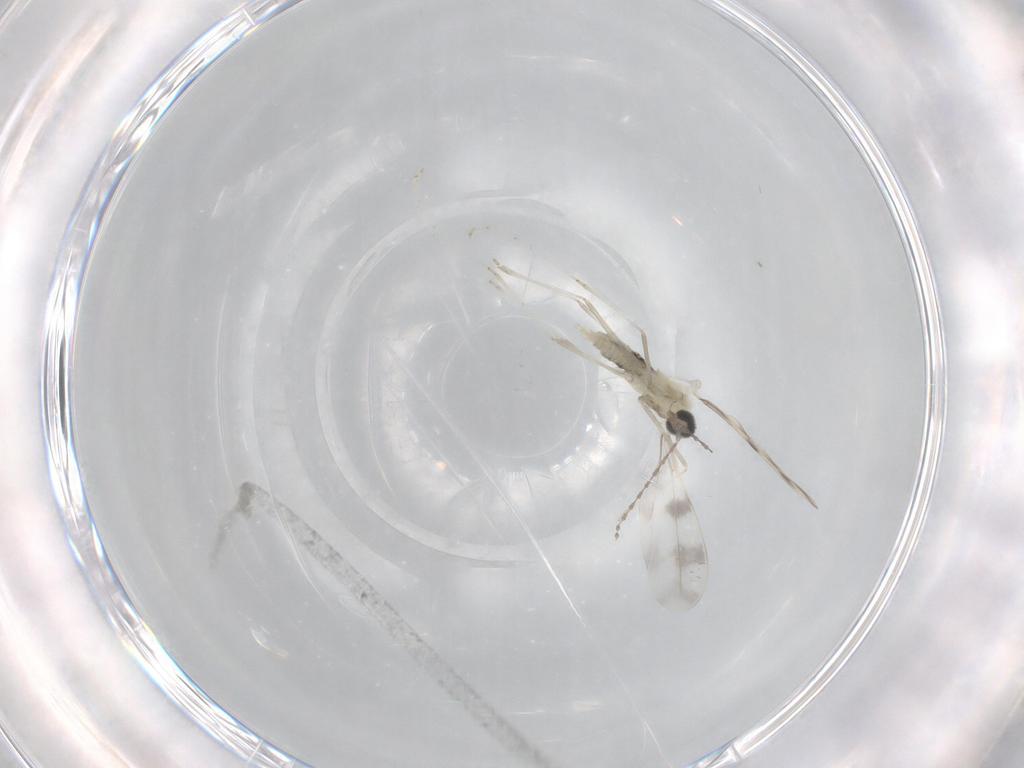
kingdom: Animalia
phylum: Arthropoda
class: Insecta
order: Diptera
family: Cecidomyiidae
